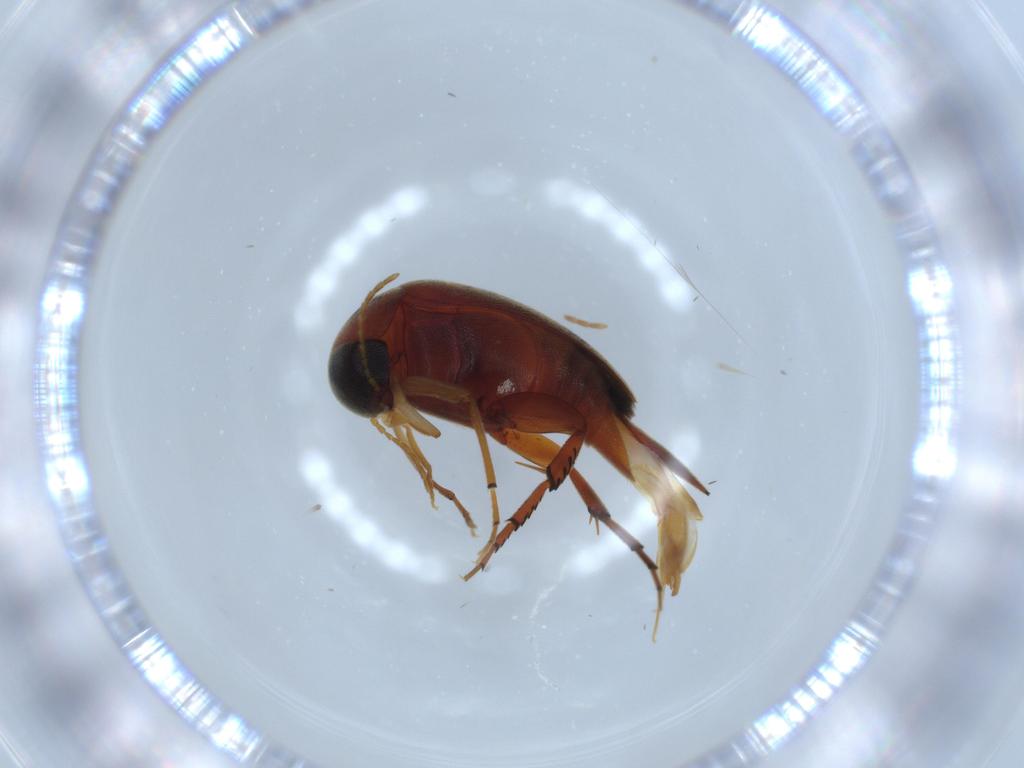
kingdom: Animalia
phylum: Arthropoda
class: Insecta
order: Coleoptera
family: Mordellidae
